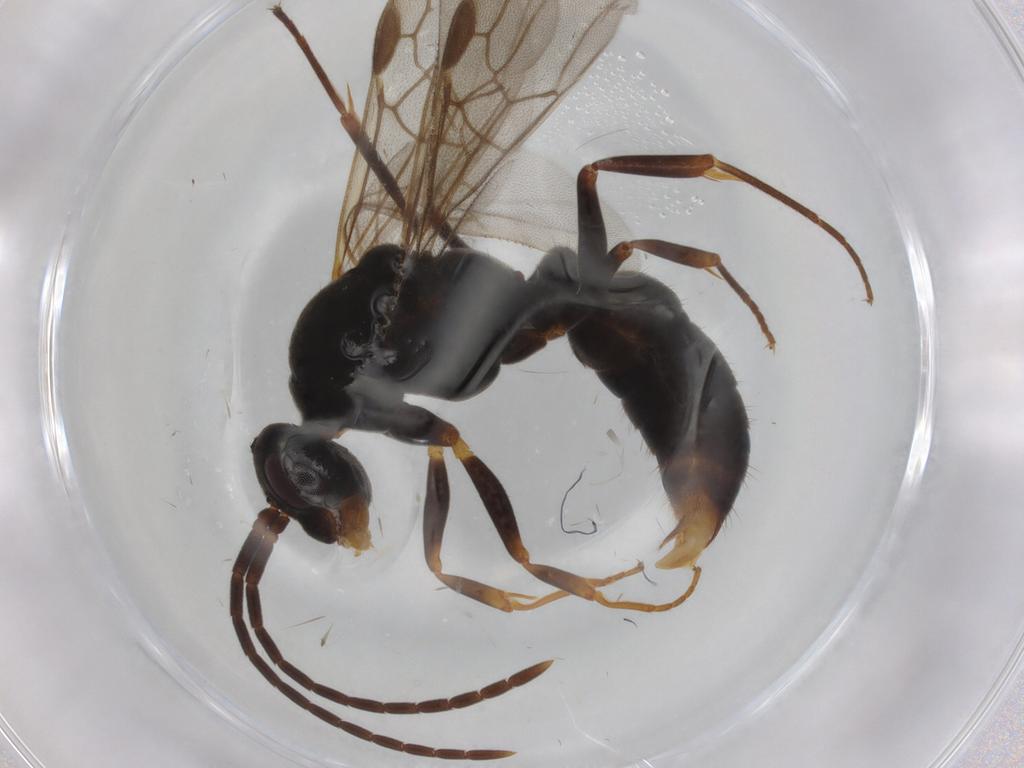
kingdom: Animalia
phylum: Arthropoda
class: Insecta
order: Hymenoptera
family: Formicidae
